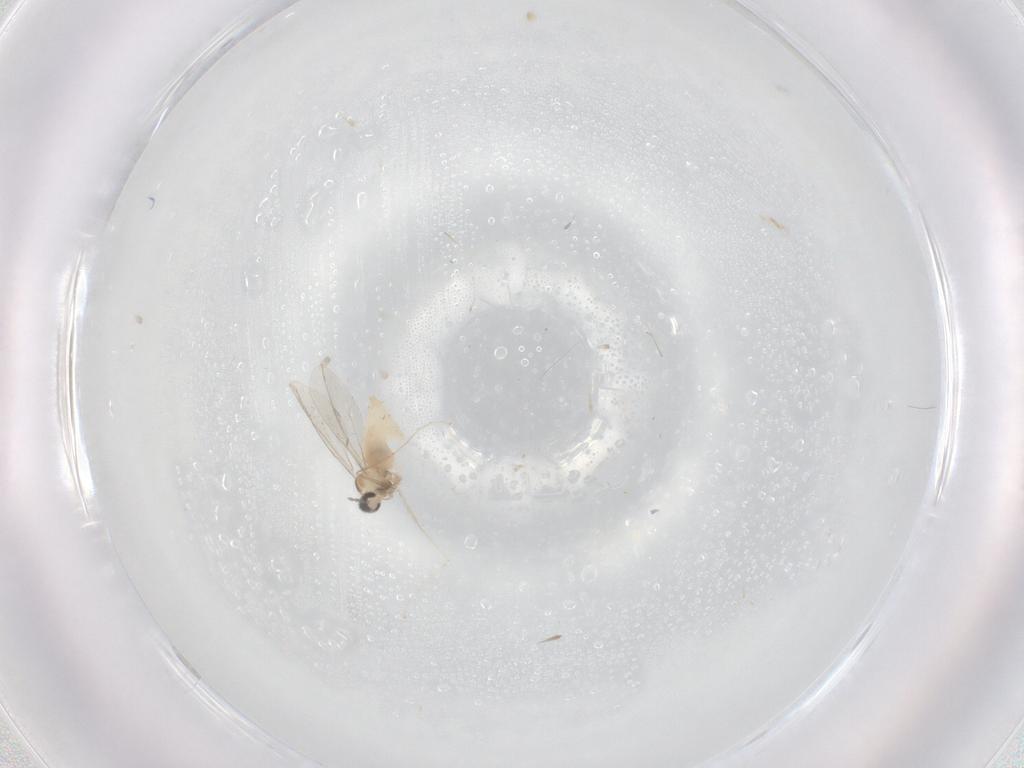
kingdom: Animalia
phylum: Arthropoda
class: Insecta
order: Diptera
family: Cecidomyiidae
